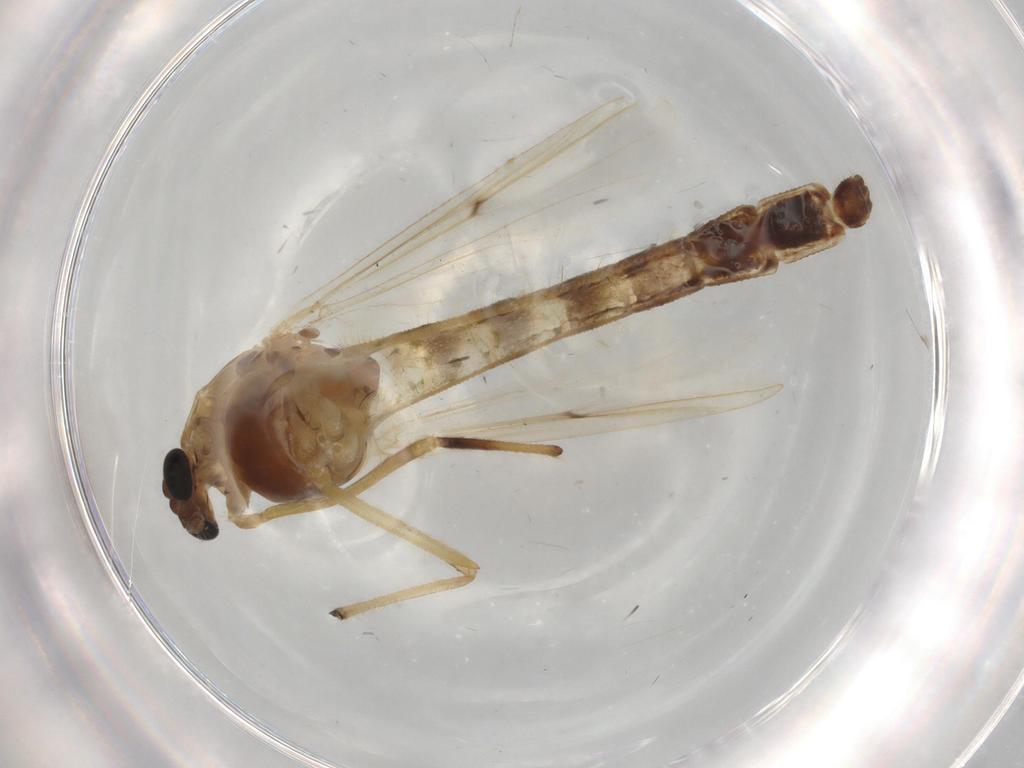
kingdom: Animalia
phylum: Arthropoda
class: Insecta
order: Diptera
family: Chironomidae
